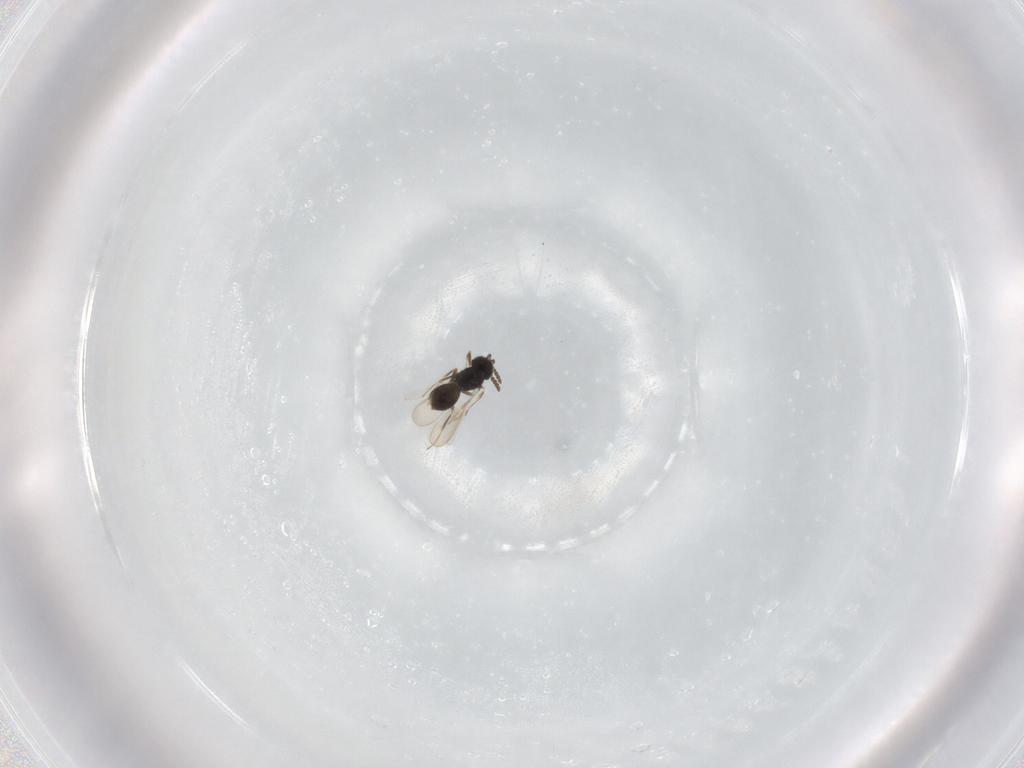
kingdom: Animalia
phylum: Arthropoda
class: Insecta
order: Hymenoptera
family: Scelionidae
